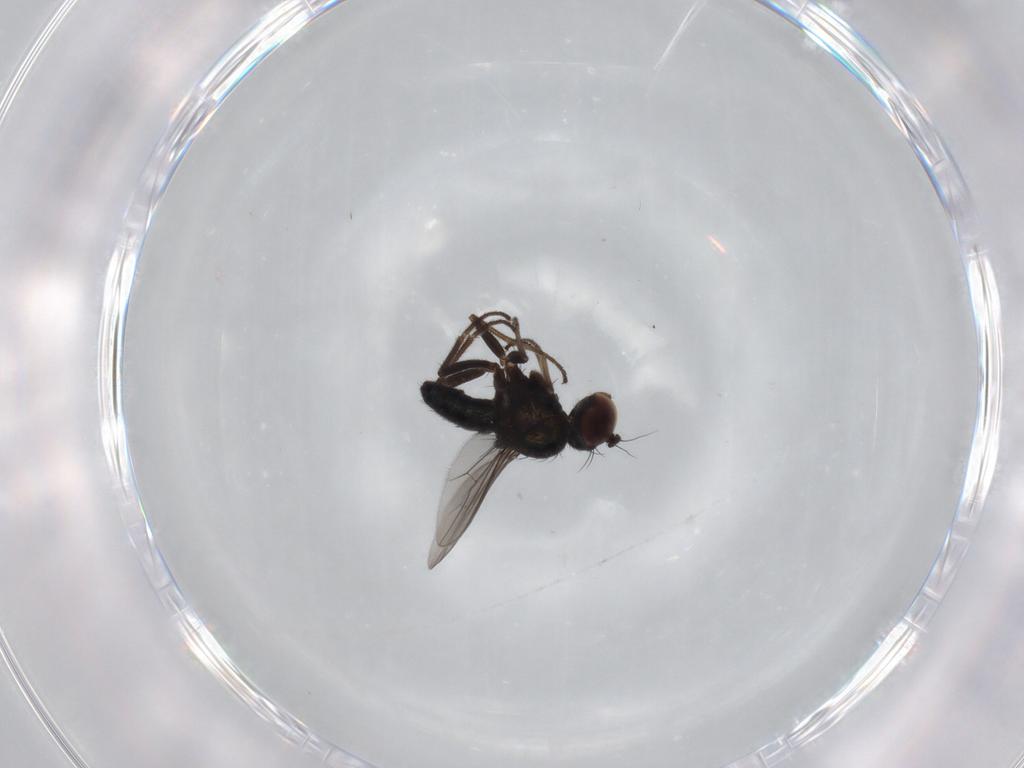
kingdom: Animalia
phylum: Arthropoda
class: Insecta
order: Diptera
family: Dolichopodidae
